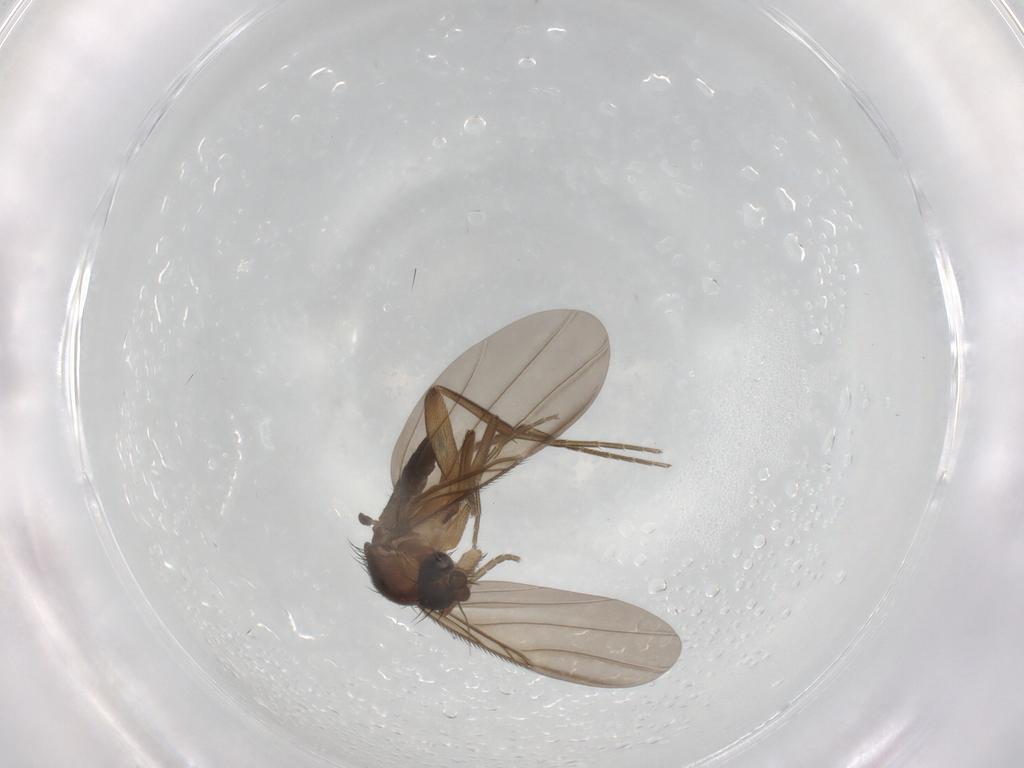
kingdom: Animalia
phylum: Arthropoda
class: Insecta
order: Diptera
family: Phoridae
